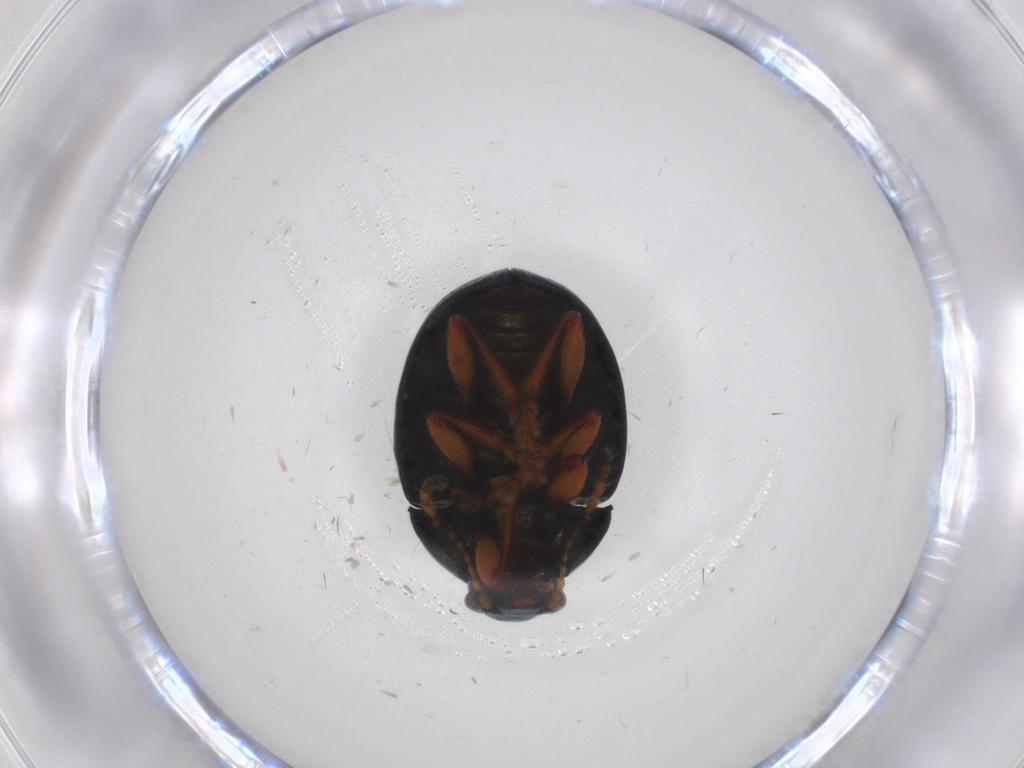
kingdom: Animalia
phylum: Arthropoda
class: Insecta
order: Coleoptera
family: Chrysomelidae
